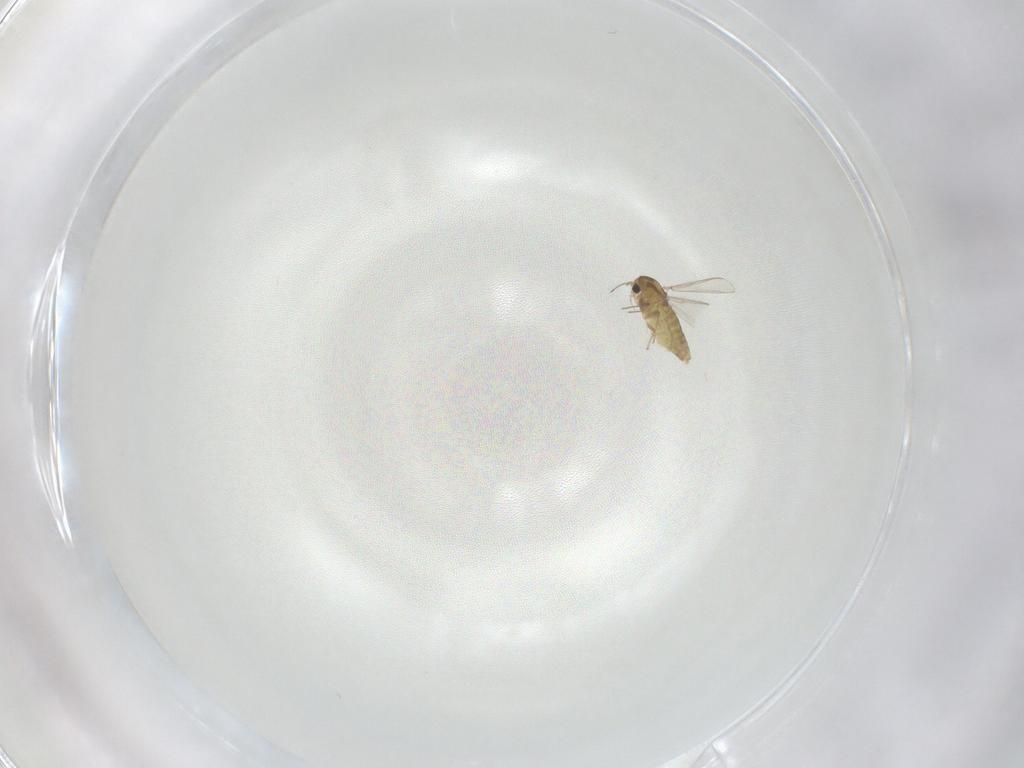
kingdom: Animalia
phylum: Arthropoda
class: Insecta
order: Diptera
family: Chironomidae
